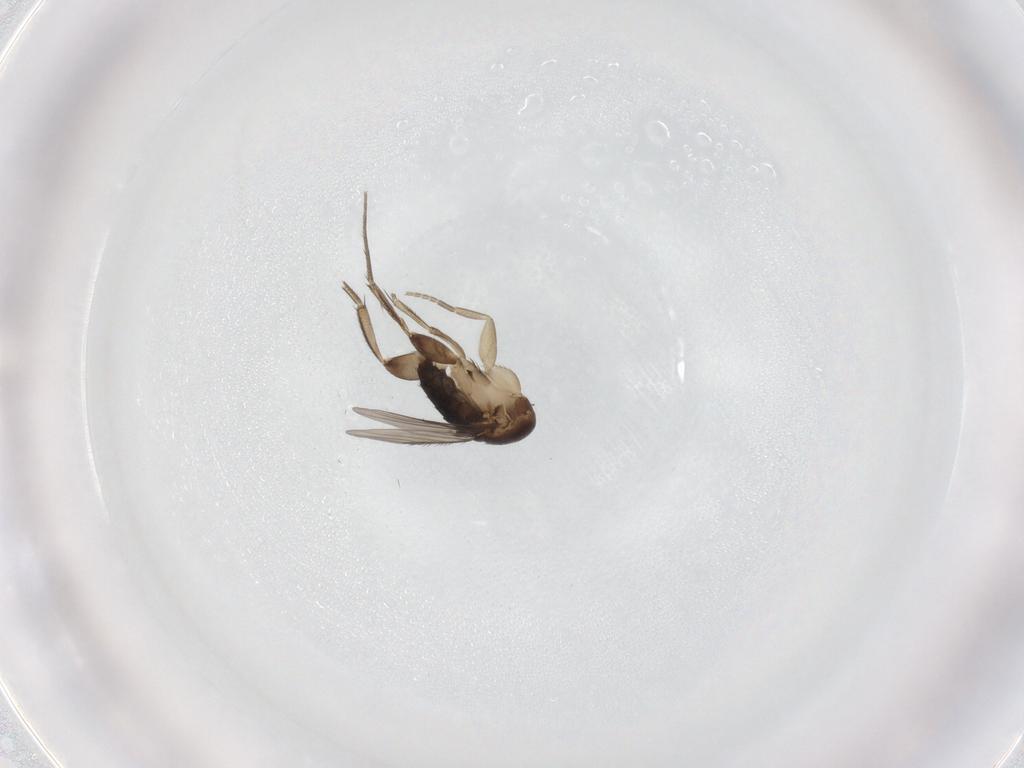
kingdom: Animalia
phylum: Arthropoda
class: Insecta
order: Diptera
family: Phoridae
